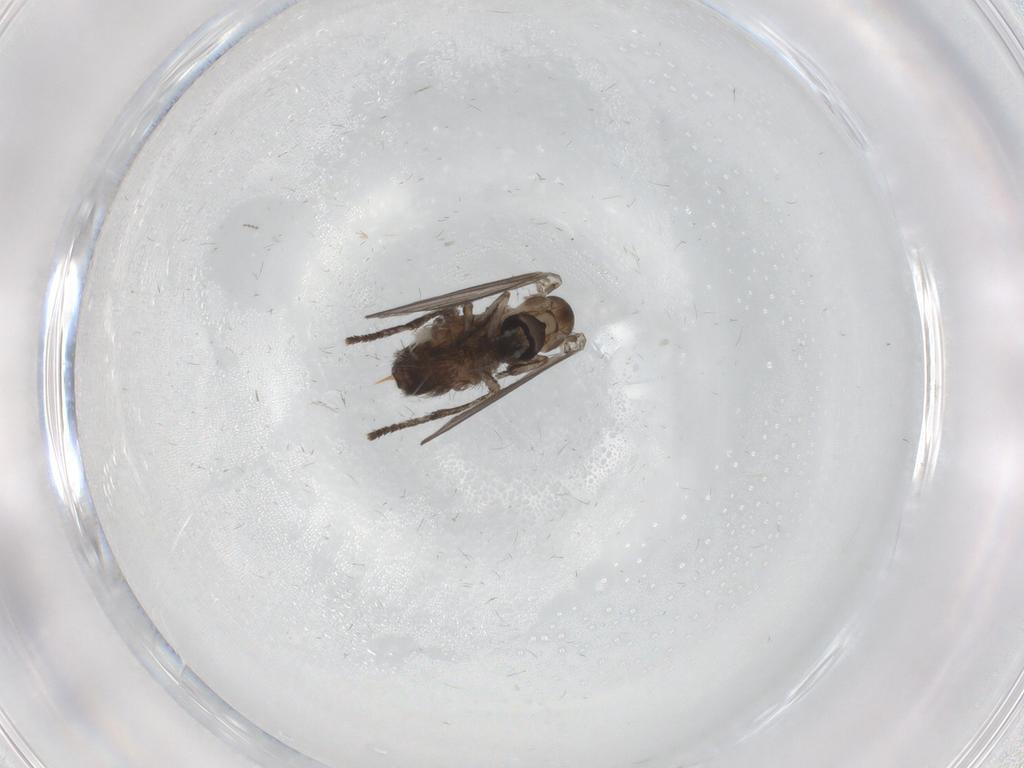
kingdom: Animalia
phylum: Arthropoda
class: Insecta
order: Diptera
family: Psychodidae
